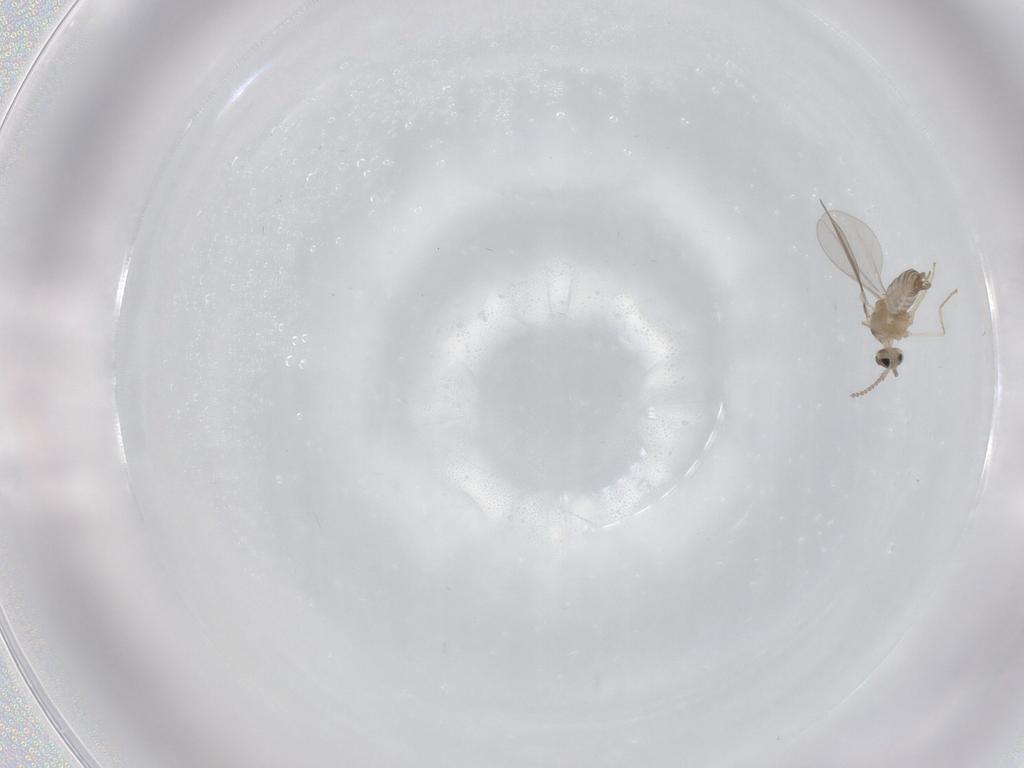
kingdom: Animalia
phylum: Arthropoda
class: Insecta
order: Diptera
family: Cecidomyiidae
